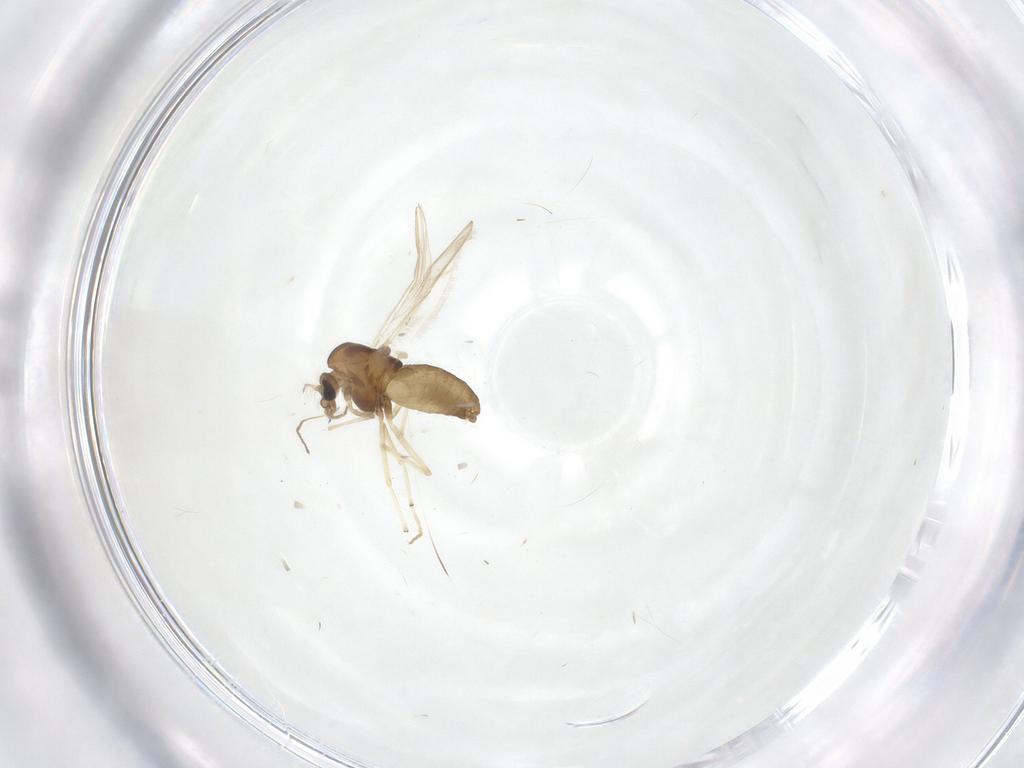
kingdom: Animalia
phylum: Arthropoda
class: Insecta
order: Diptera
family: Chironomidae
